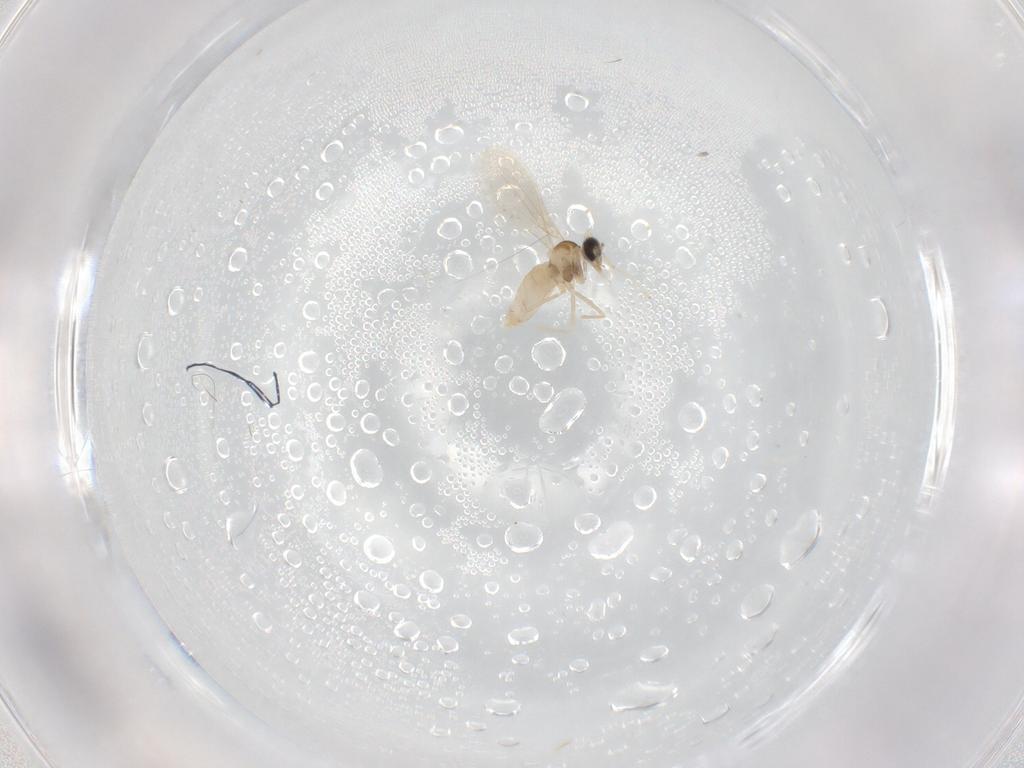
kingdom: Animalia
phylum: Arthropoda
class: Insecta
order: Diptera
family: Cecidomyiidae
